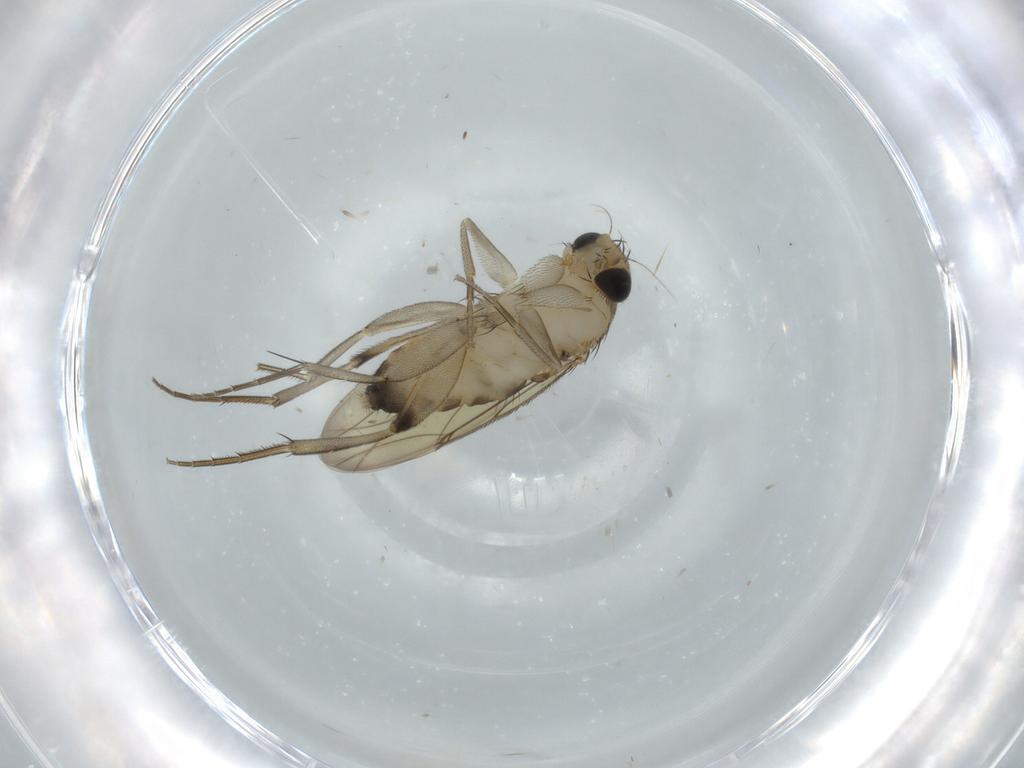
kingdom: Animalia
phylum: Arthropoda
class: Insecta
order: Diptera
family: Phoridae
